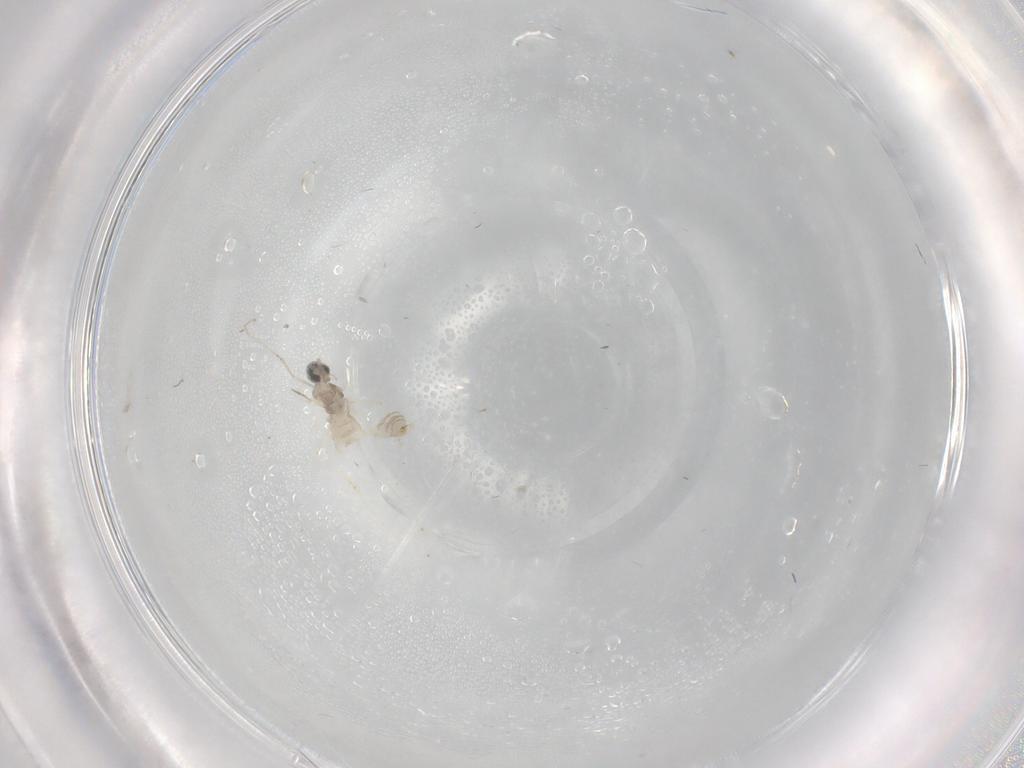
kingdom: Animalia
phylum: Arthropoda
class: Insecta
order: Diptera
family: Cecidomyiidae
